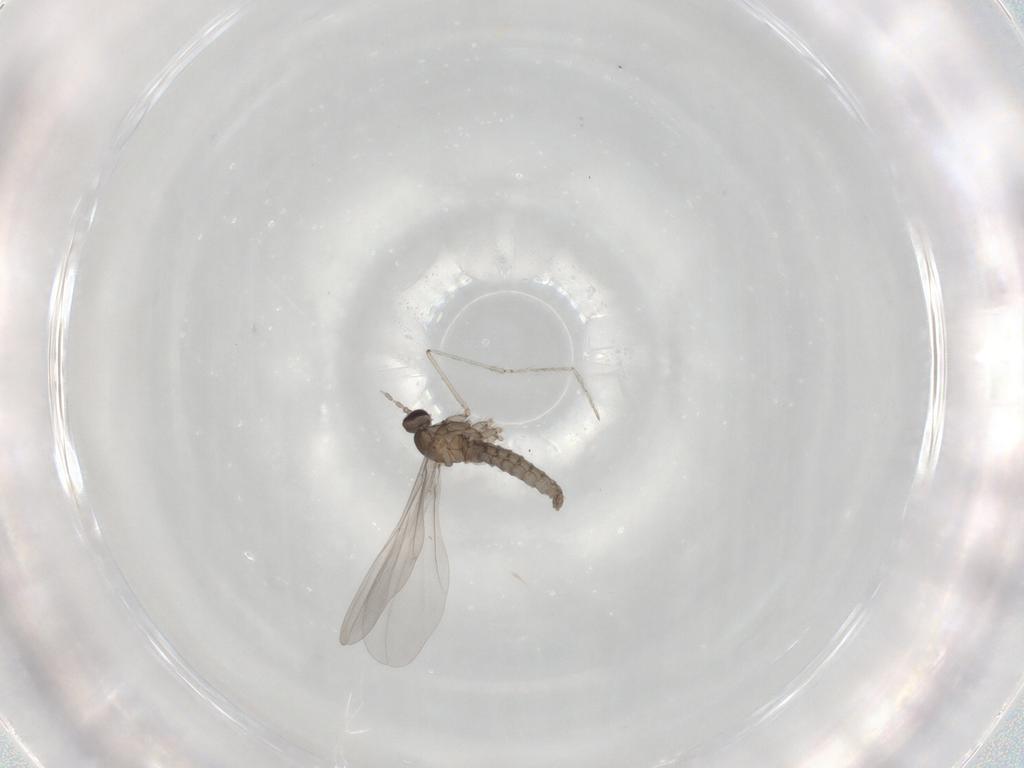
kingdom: Animalia
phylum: Arthropoda
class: Insecta
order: Diptera
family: Cecidomyiidae
